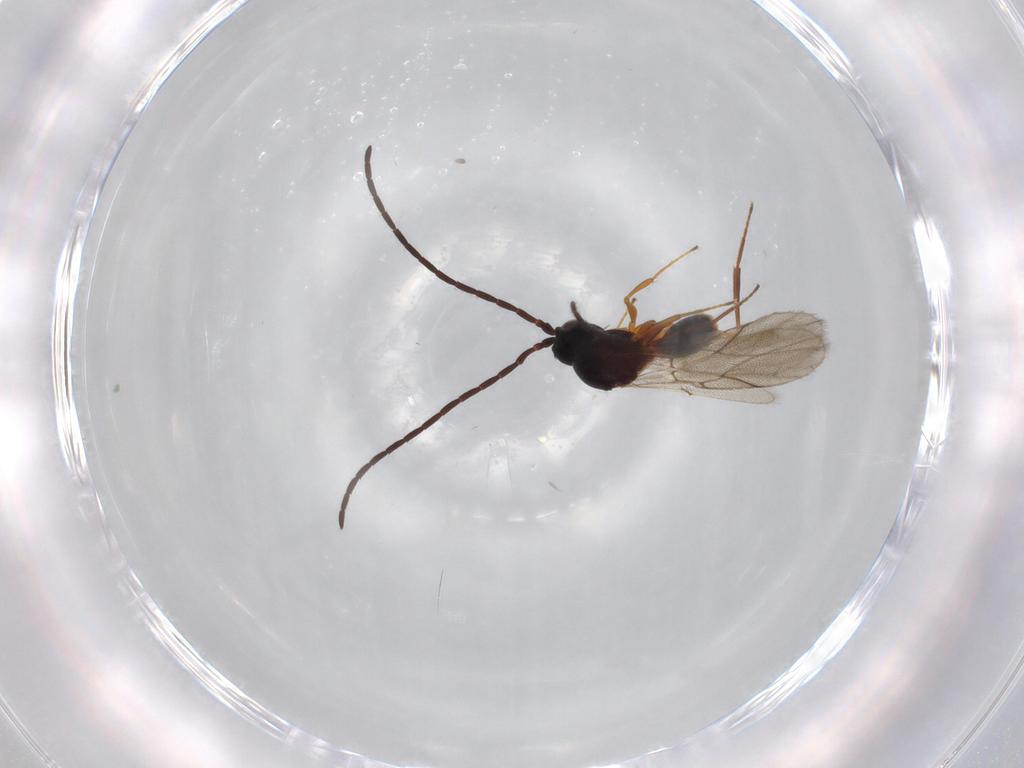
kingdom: Animalia
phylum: Arthropoda
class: Insecta
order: Hymenoptera
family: Figitidae
